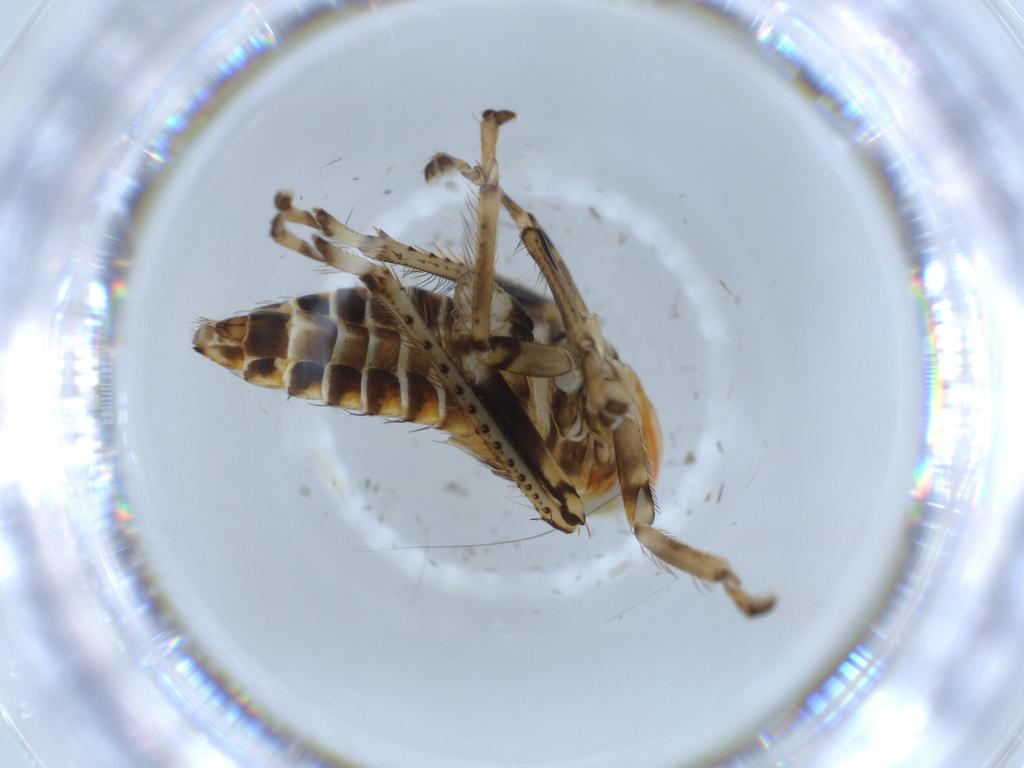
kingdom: Animalia
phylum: Arthropoda
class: Insecta
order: Hemiptera
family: Cicadellidae
